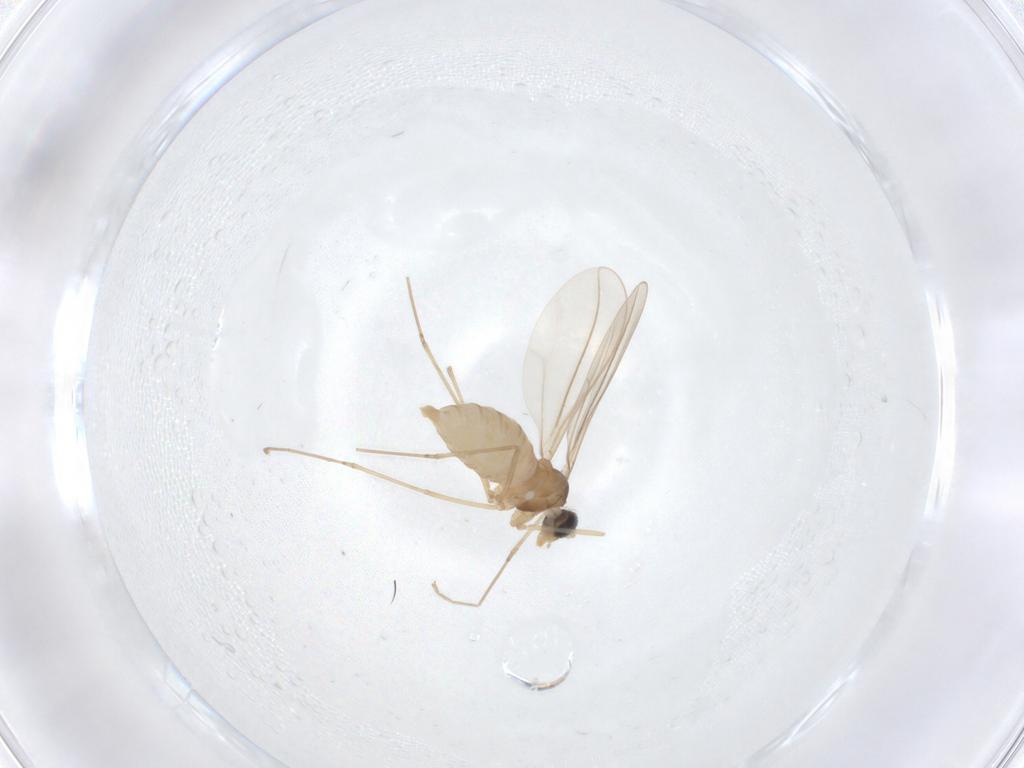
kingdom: Animalia
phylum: Arthropoda
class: Insecta
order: Diptera
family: Cecidomyiidae
